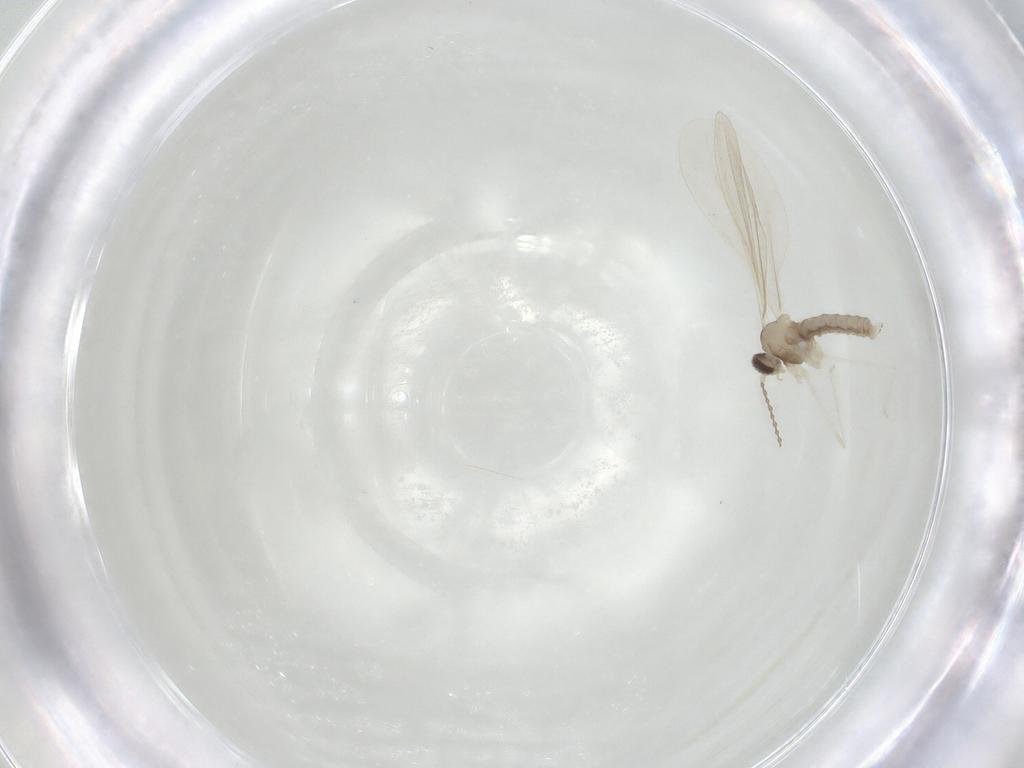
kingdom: Animalia
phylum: Arthropoda
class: Insecta
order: Diptera
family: Cecidomyiidae
